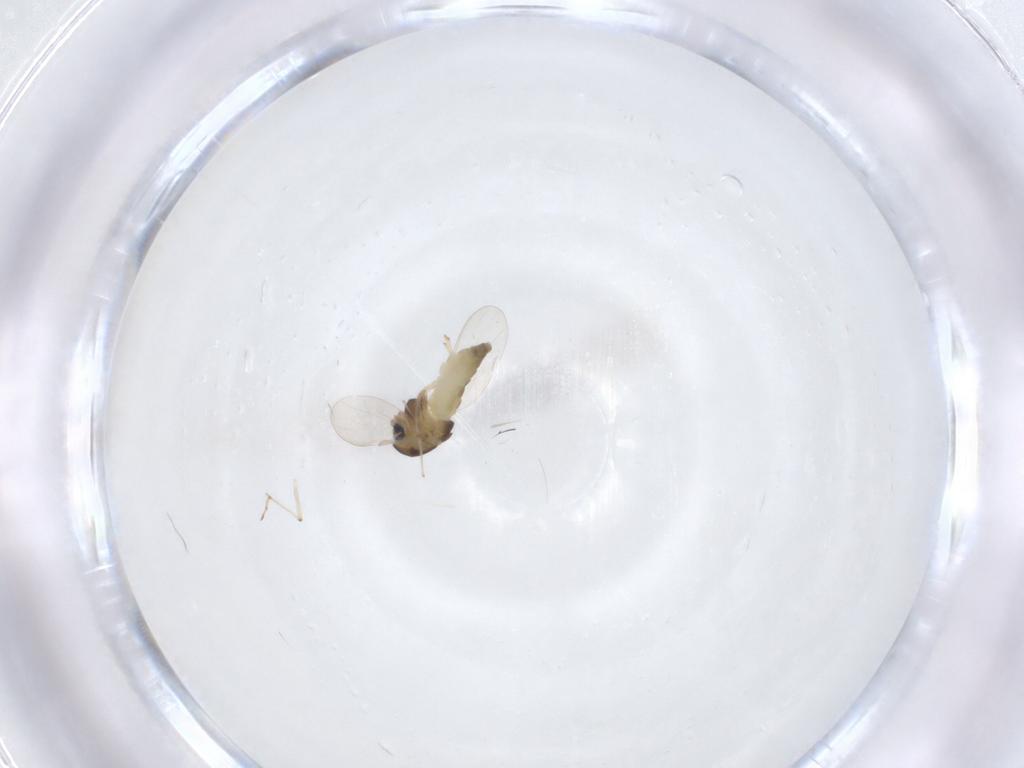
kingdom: Animalia
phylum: Arthropoda
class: Insecta
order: Diptera
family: Chironomidae
